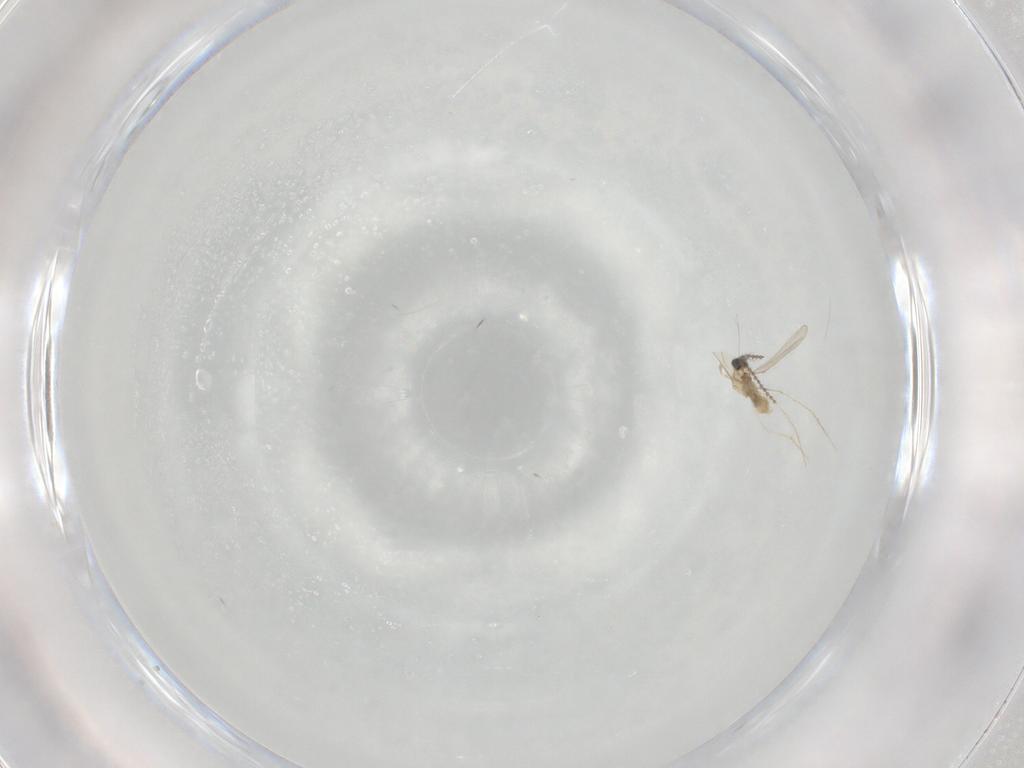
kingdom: Animalia
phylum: Arthropoda
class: Insecta
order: Diptera
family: Cecidomyiidae
